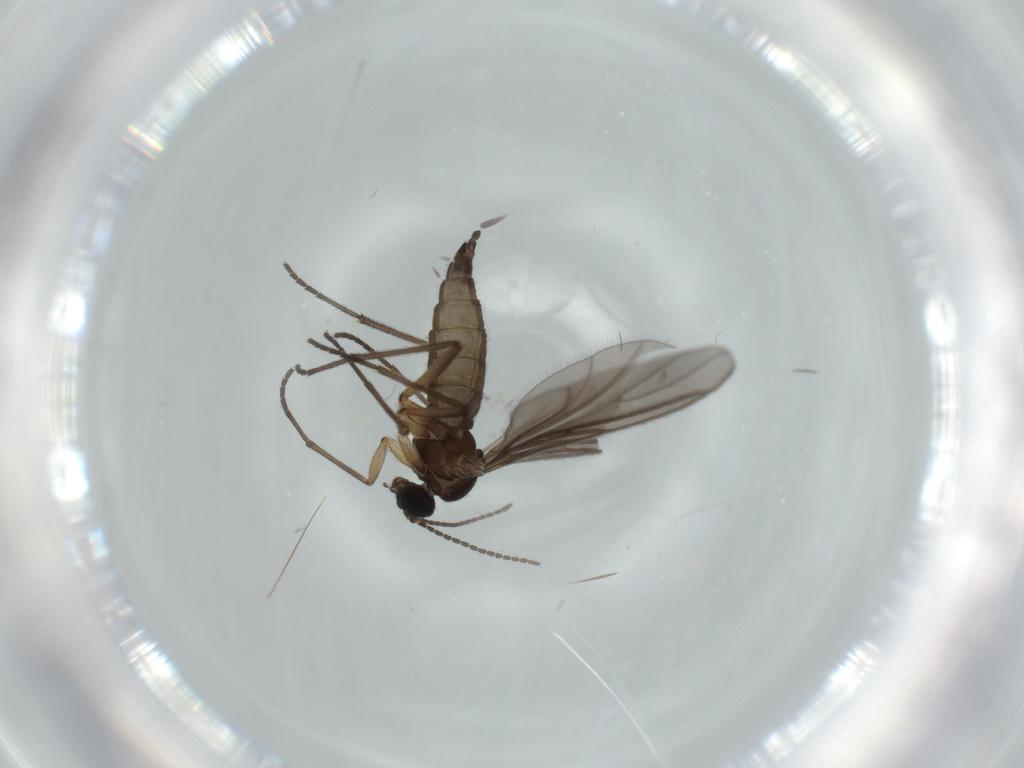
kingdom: Animalia
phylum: Arthropoda
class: Insecta
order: Diptera
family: Sciaridae
